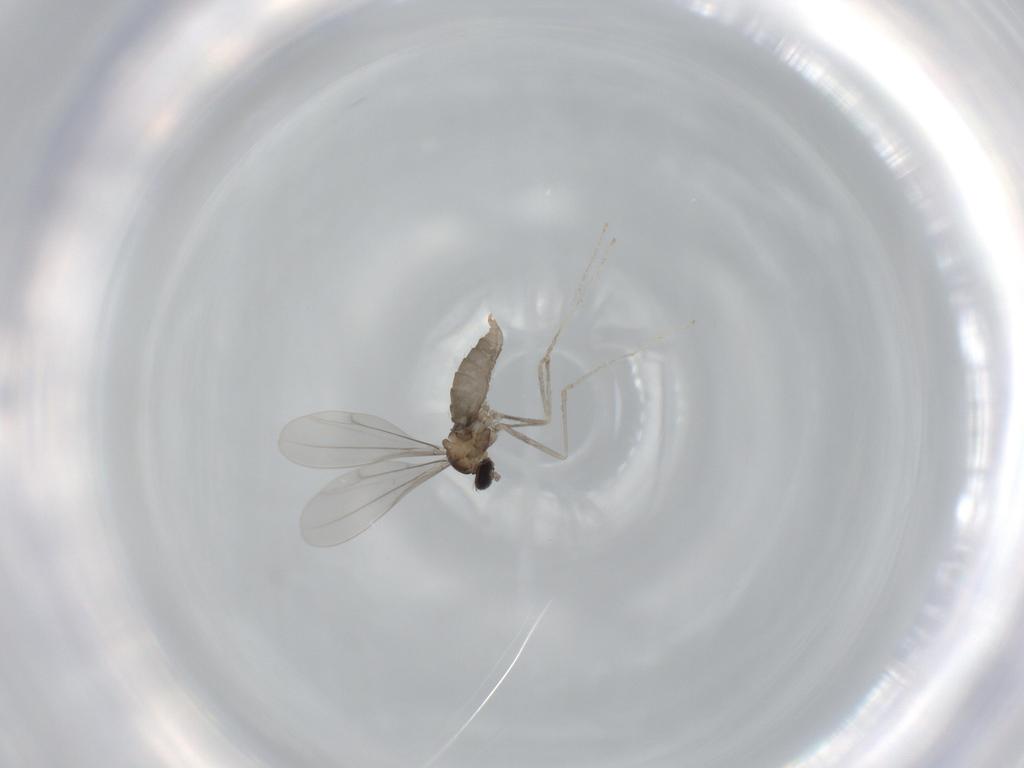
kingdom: Animalia
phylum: Arthropoda
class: Insecta
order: Diptera
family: Cecidomyiidae
